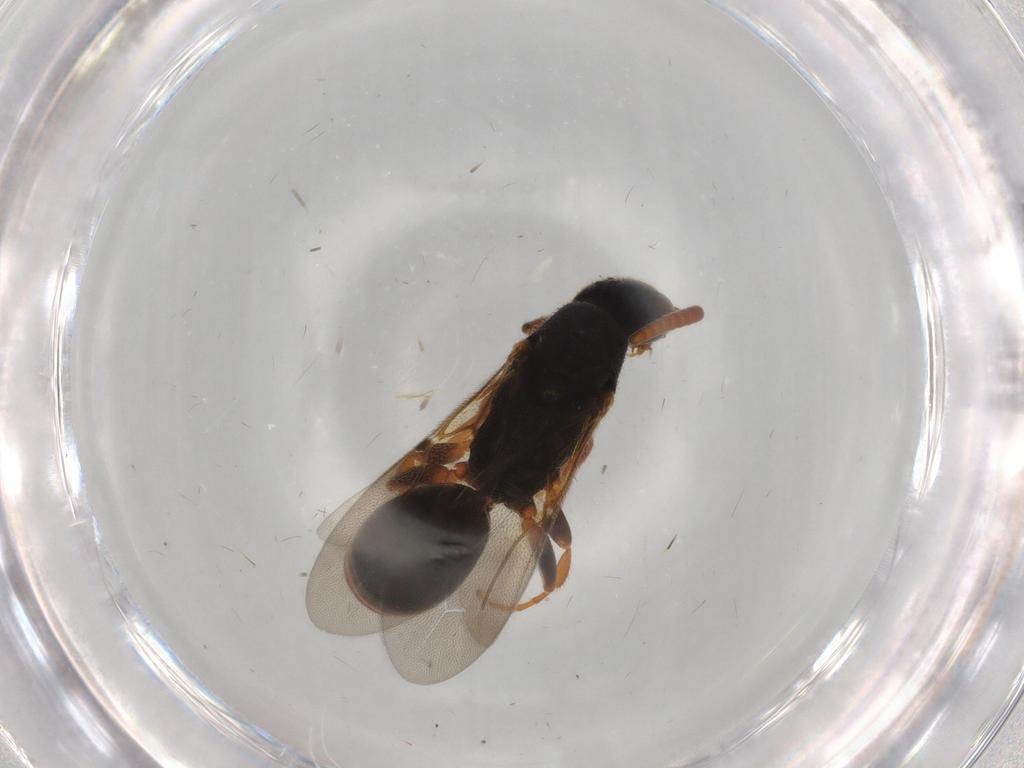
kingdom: Animalia
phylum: Arthropoda
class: Insecta
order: Hymenoptera
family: Bethylidae
